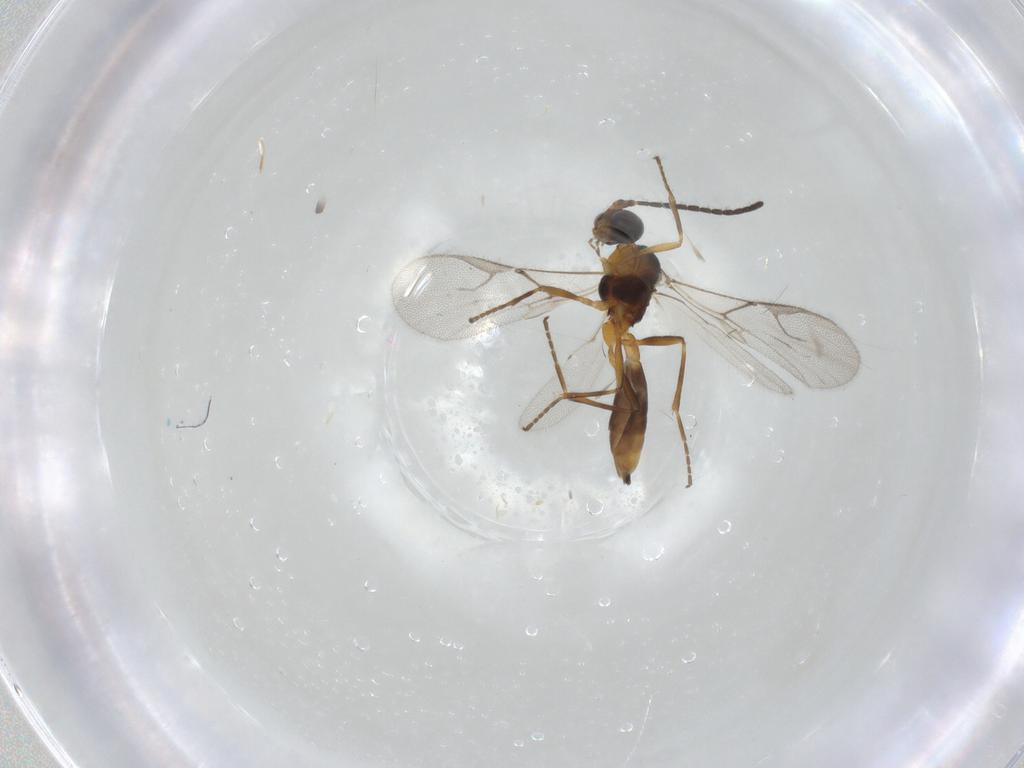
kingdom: Animalia
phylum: Arthropoda
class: Insecta
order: Hymenoptera
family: Braconidae
